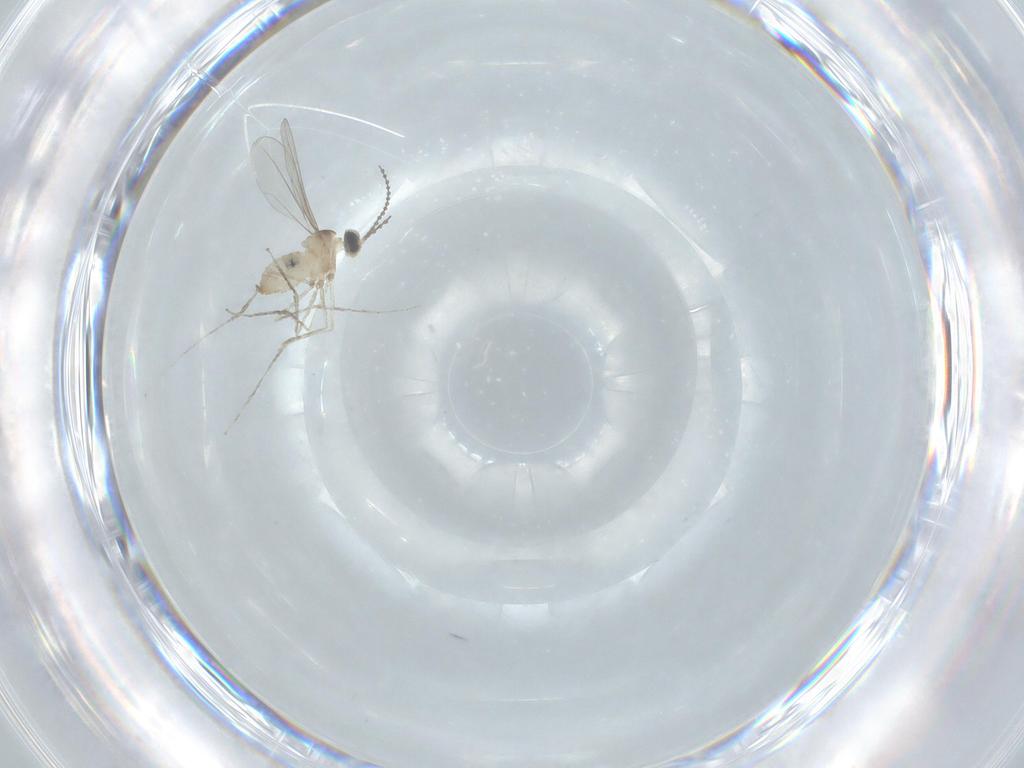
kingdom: Animalia
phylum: Arthropoda
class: Insecta
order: Diptera
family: Cecidomyiidae
